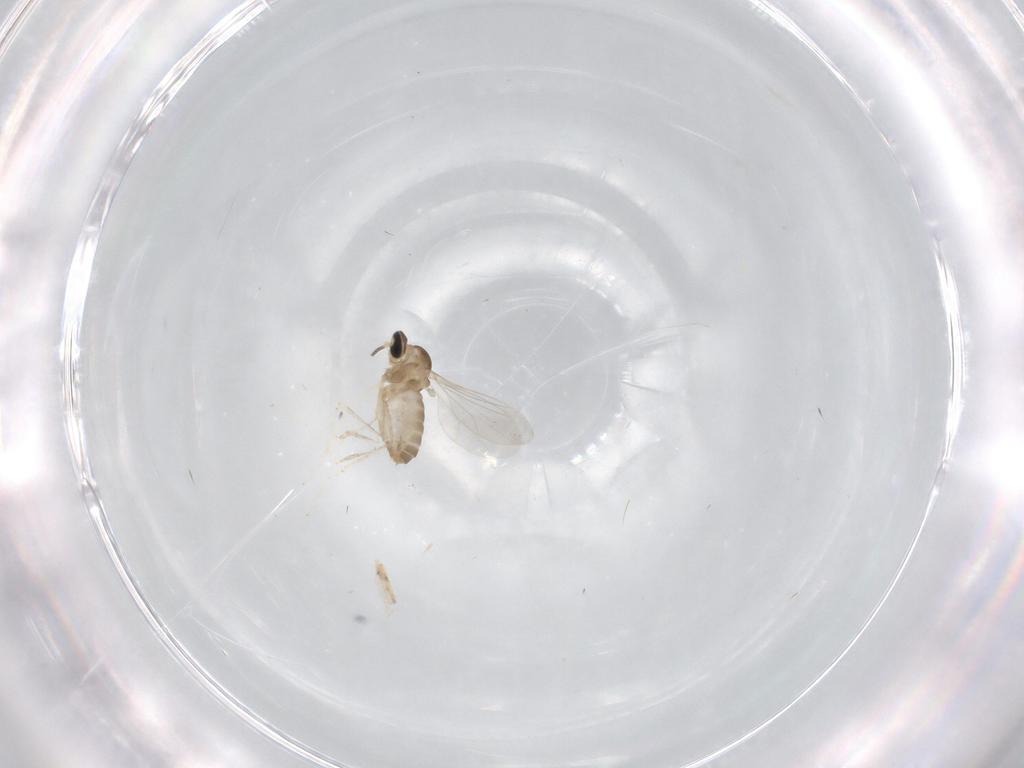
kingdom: Animalia
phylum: Arthropoda
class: Insecta
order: Diptera
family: Cecidomyiidae
